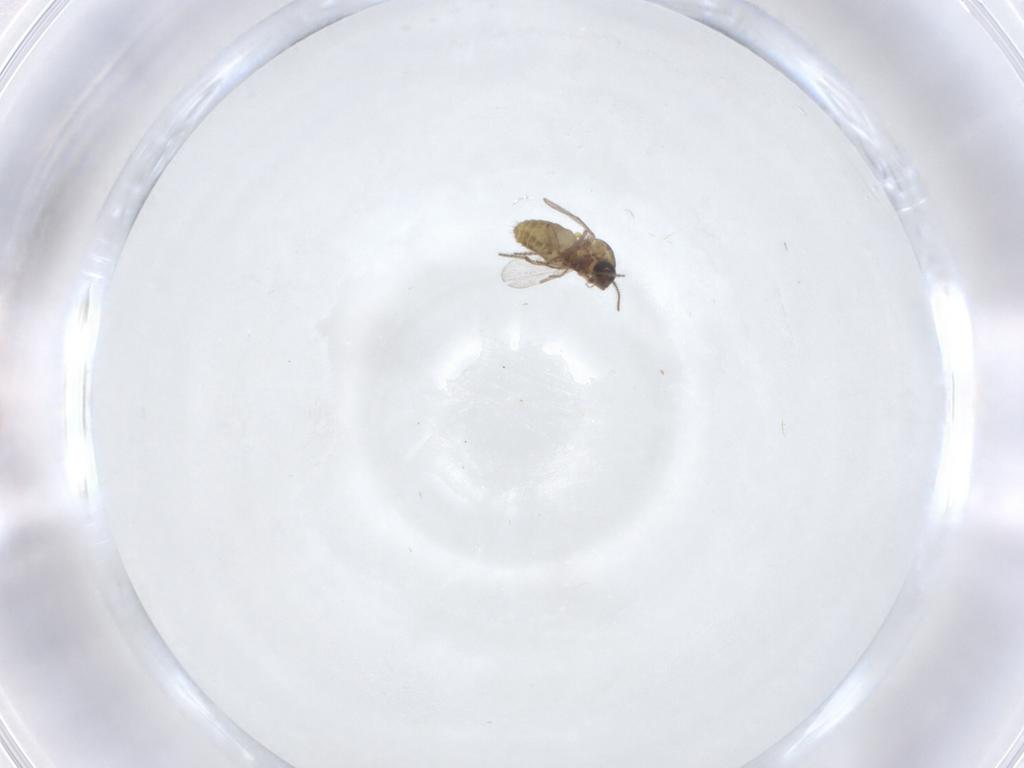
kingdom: Animalia
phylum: Arthropoda
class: Insecta
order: Diptera
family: Ceratopogonidae
